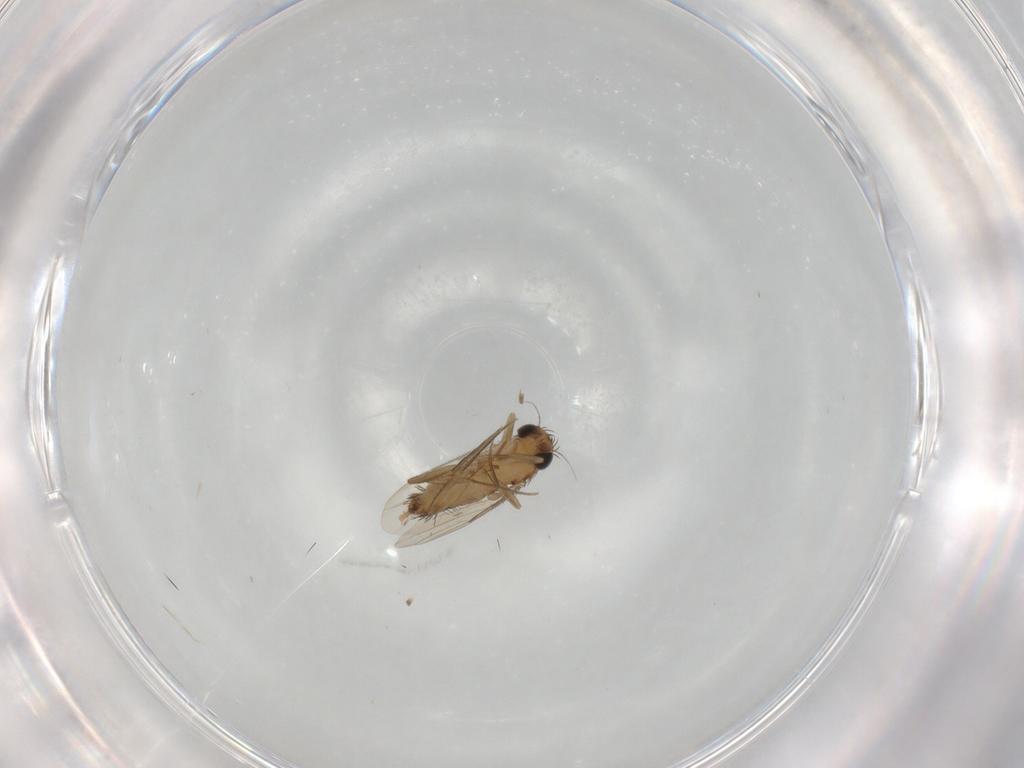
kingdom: Animalia
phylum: Arthropoda
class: Insecta
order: Diptera
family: Phoridae
